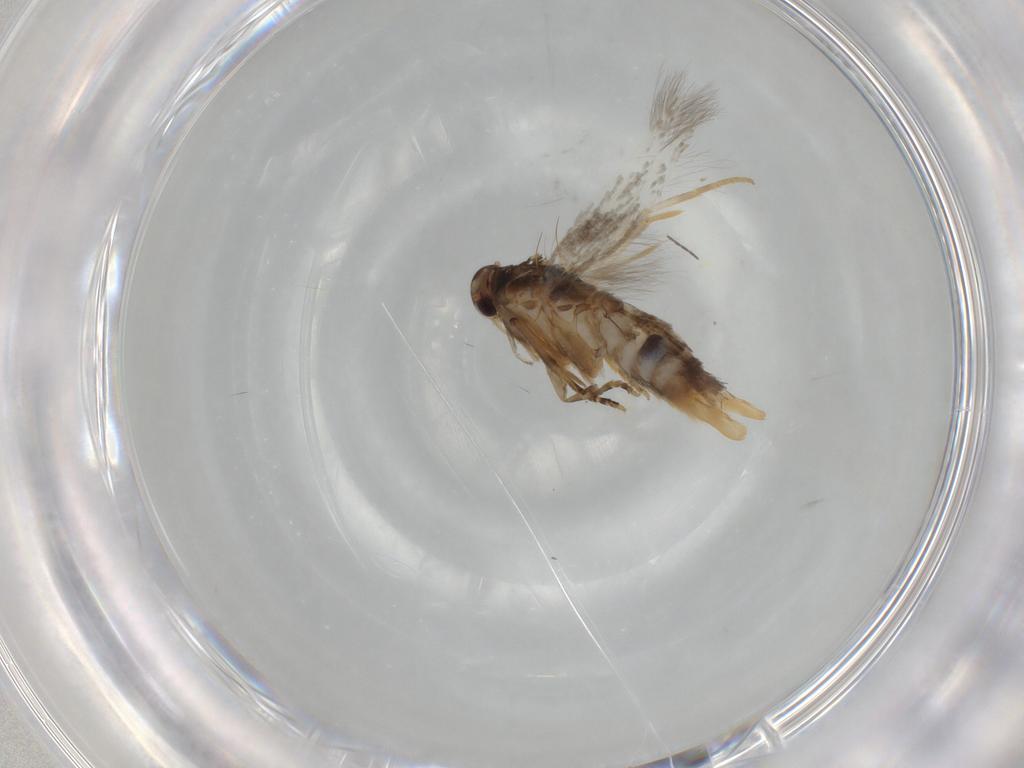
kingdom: Animalia
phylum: Arthropoda
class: Insecta
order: Lepidoptera
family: Elachistidae
